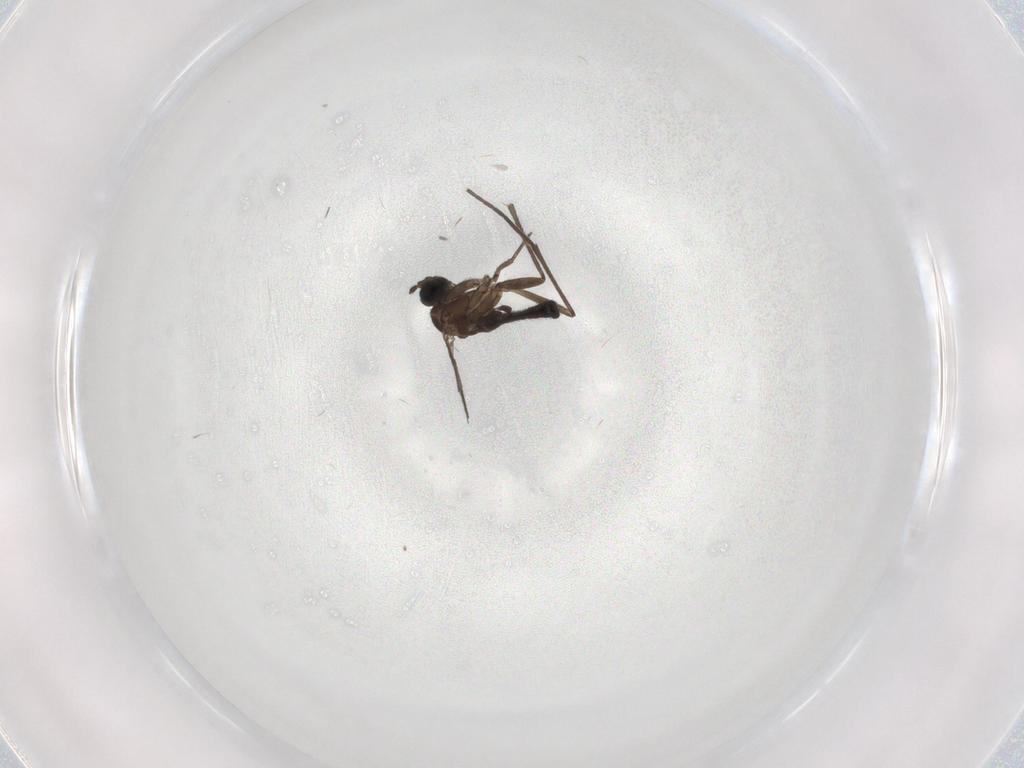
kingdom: Animalia
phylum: Arthropoda
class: Insecta
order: Diptera
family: Sciaridae
